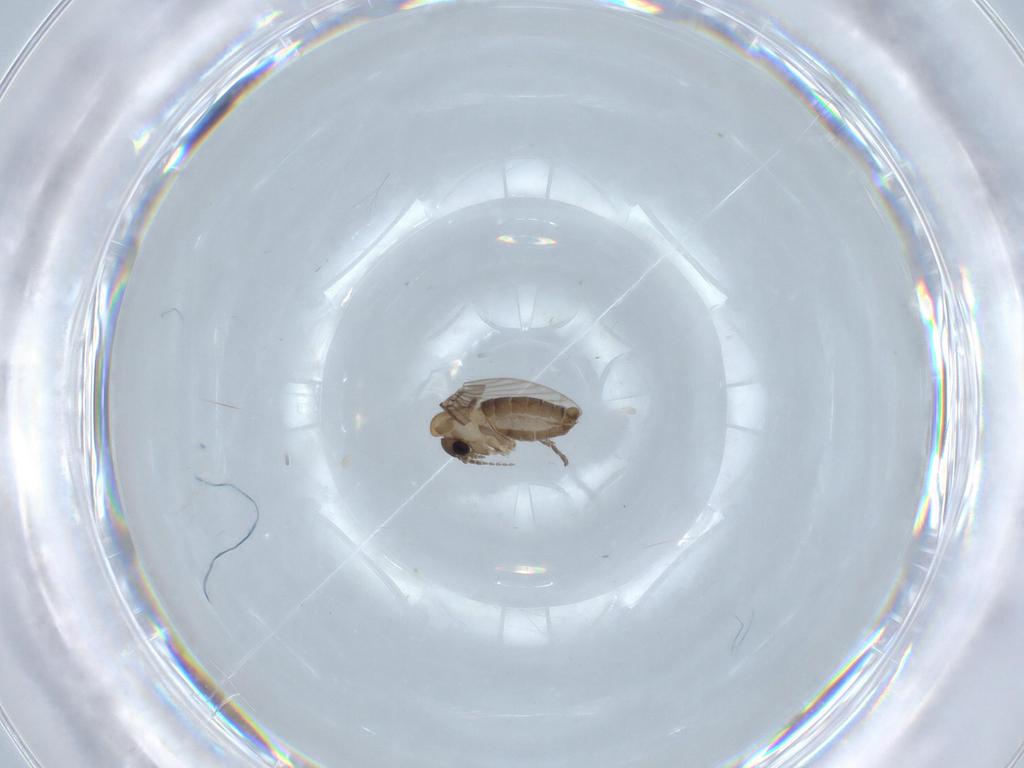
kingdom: Animalia
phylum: Arthropoda
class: Insecta
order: Diptera
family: Psychodidae
